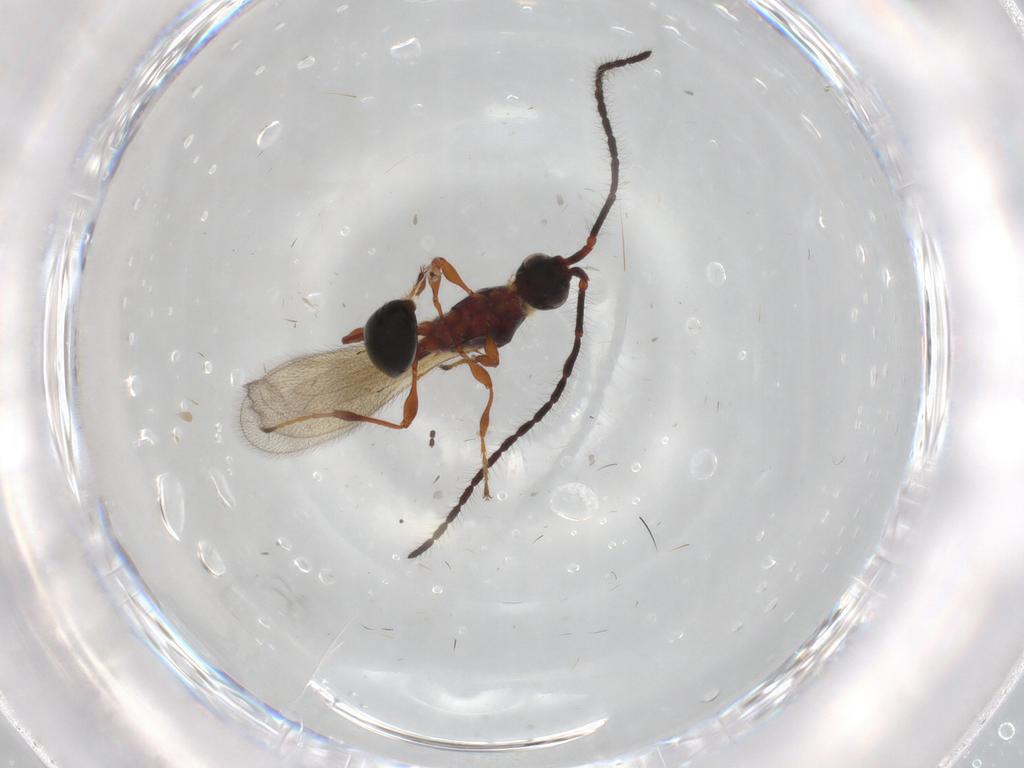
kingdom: Animalia
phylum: Arthropoda
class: Insecta
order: Hymenoptera
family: Diapriidae
